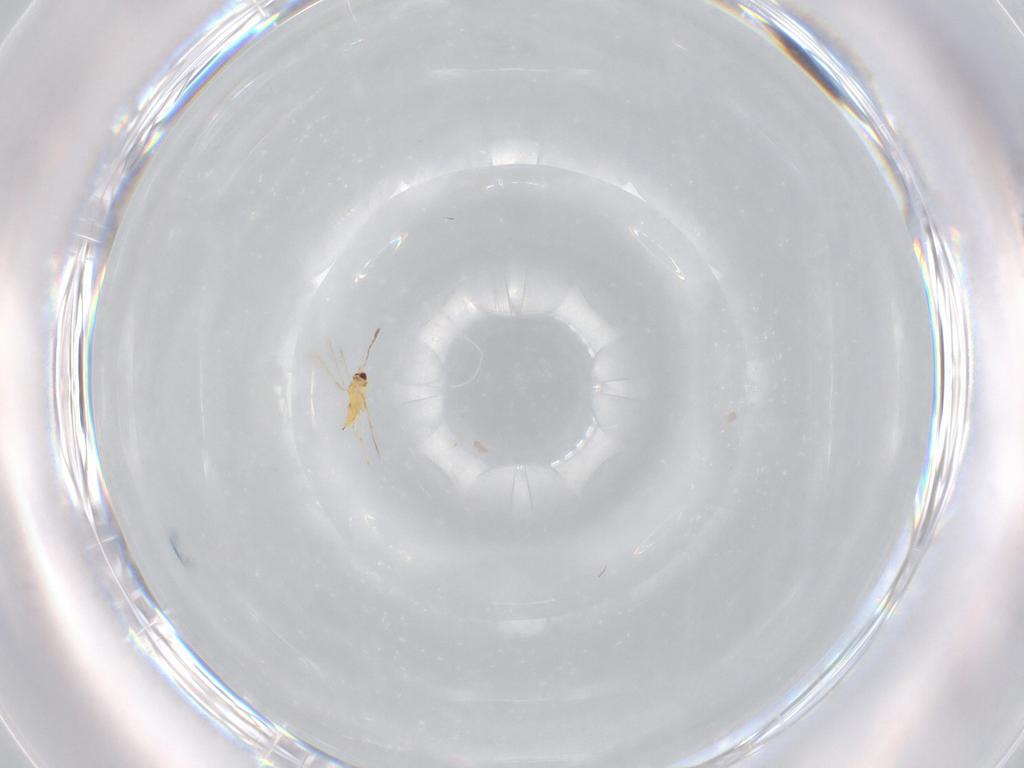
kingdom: Animalia
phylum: Arthropoda
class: Insecta
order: Hymenoptera
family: Mymaridae
